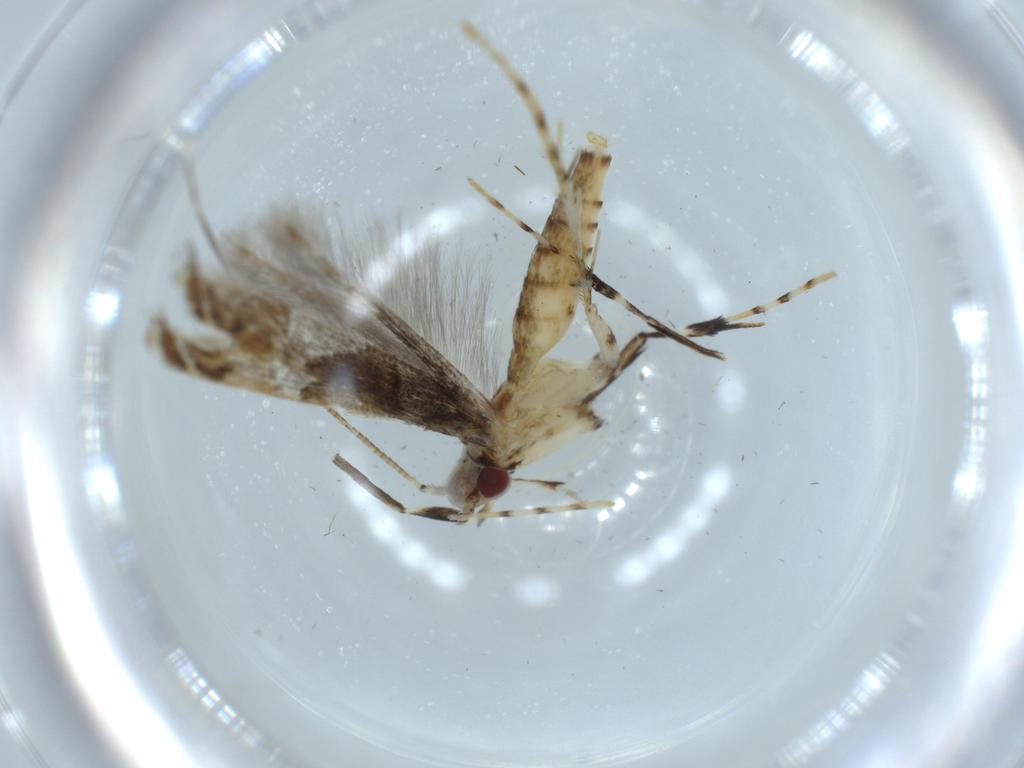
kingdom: Animalia
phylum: Arthropoda
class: Insecta
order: Lepidoptera
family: Gracillariidae
